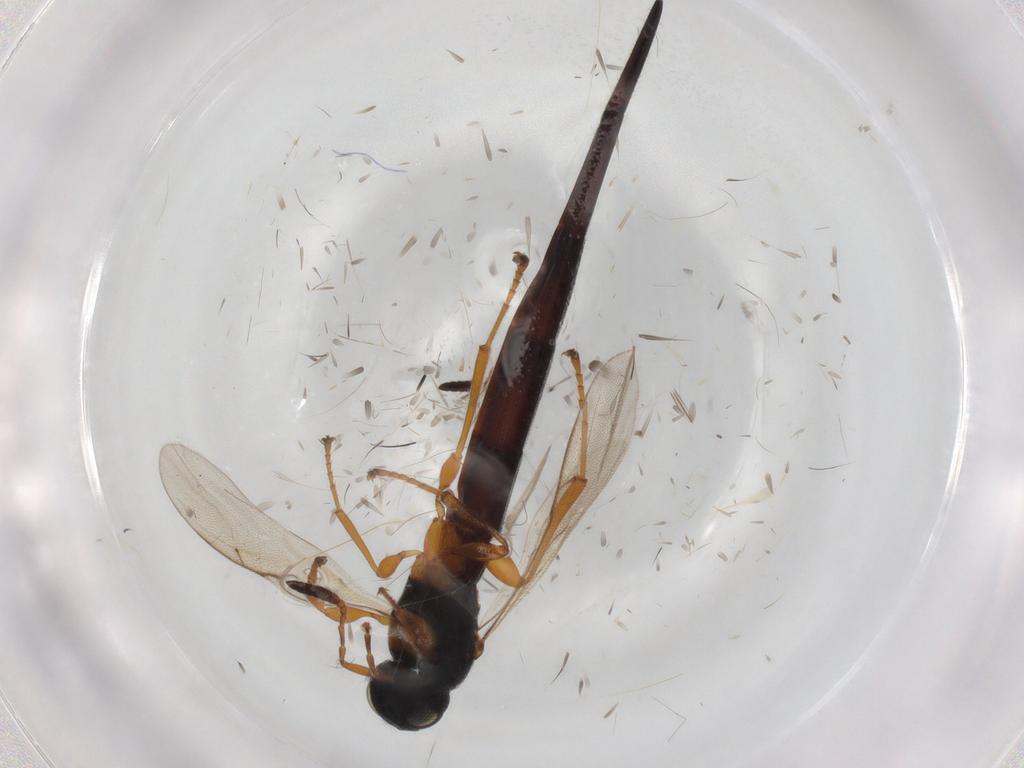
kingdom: Animalia
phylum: Arthropoda
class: Insecta
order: Hymenoptera
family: Scelionidae
